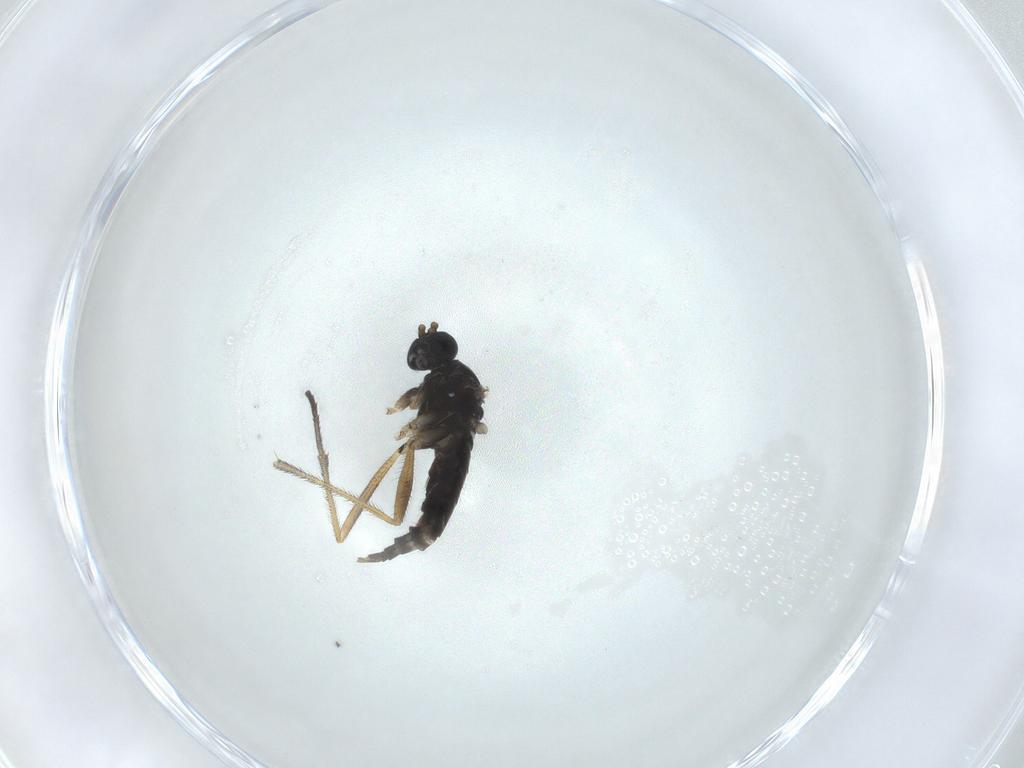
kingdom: Animalia
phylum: Arthropoda
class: Insecta
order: Diptera
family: Sciaridae
